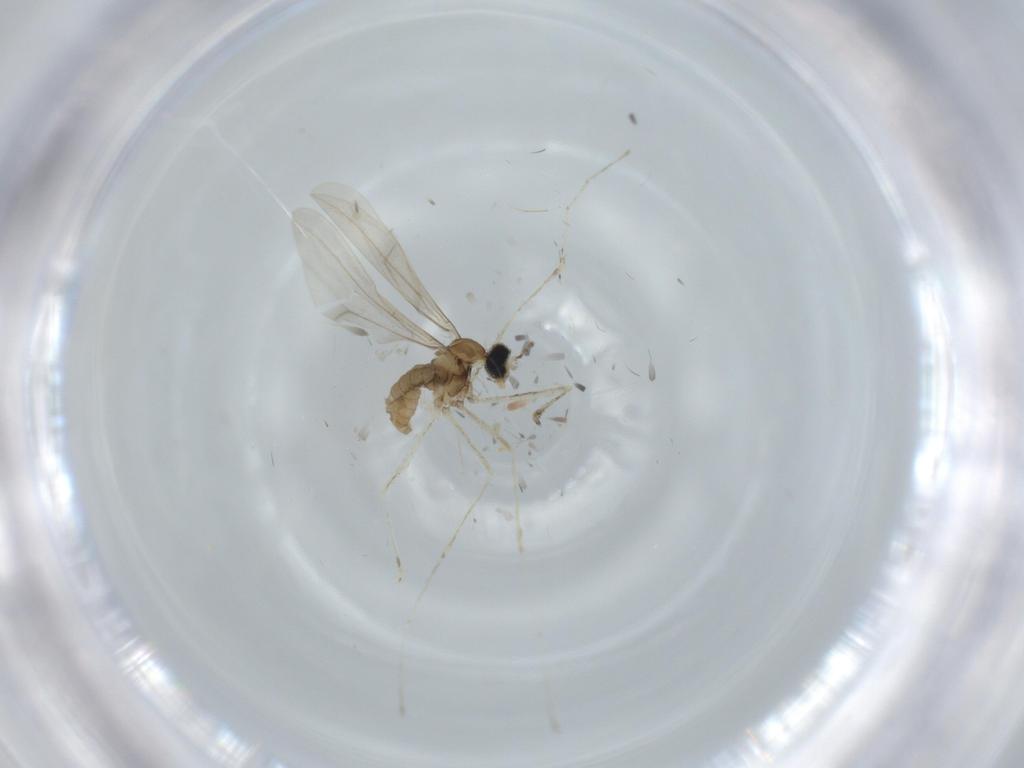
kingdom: Animalia
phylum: Arthropoda
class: Insecta
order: Diptera
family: Cecidomyiidae
